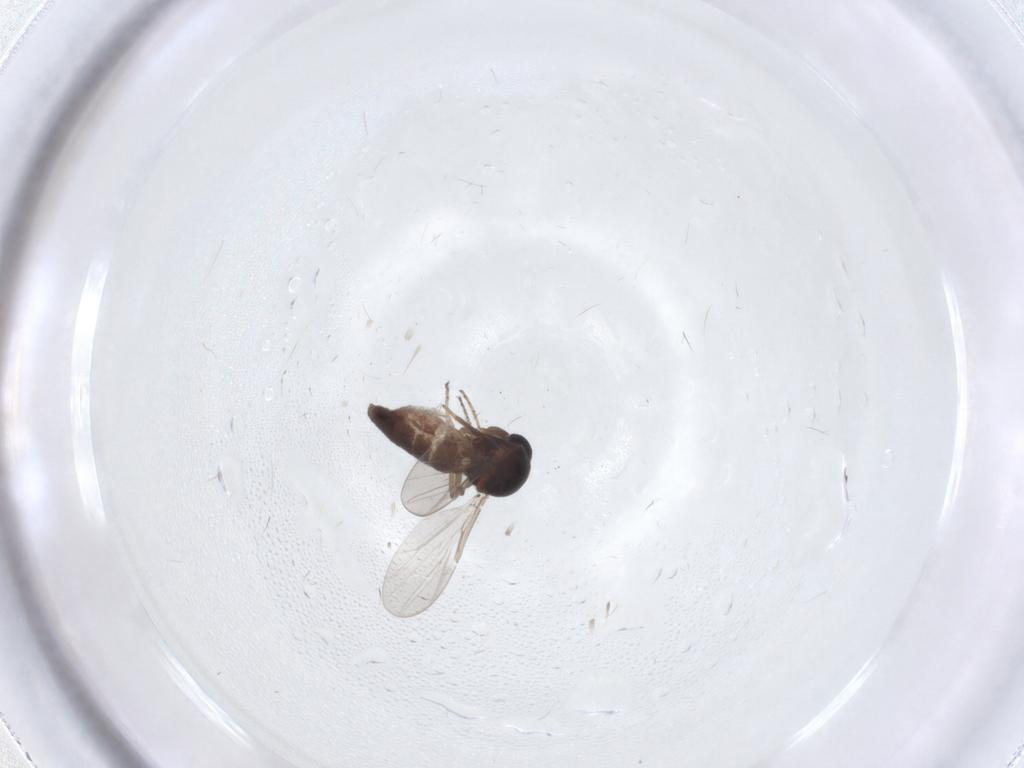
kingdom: Animalia
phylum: Arthropoda
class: Insecta
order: Diptera
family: Ceratopogonidae
